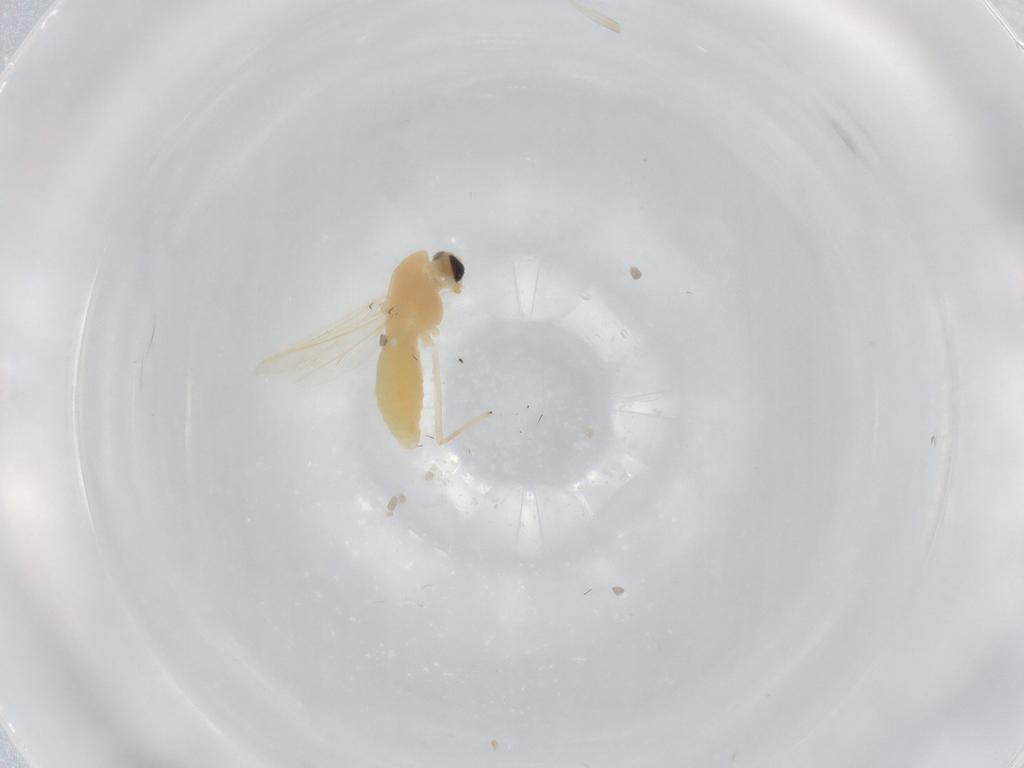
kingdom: Animalia
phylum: Arthropoda
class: Insecta
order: Diptera
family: Chironomidae
